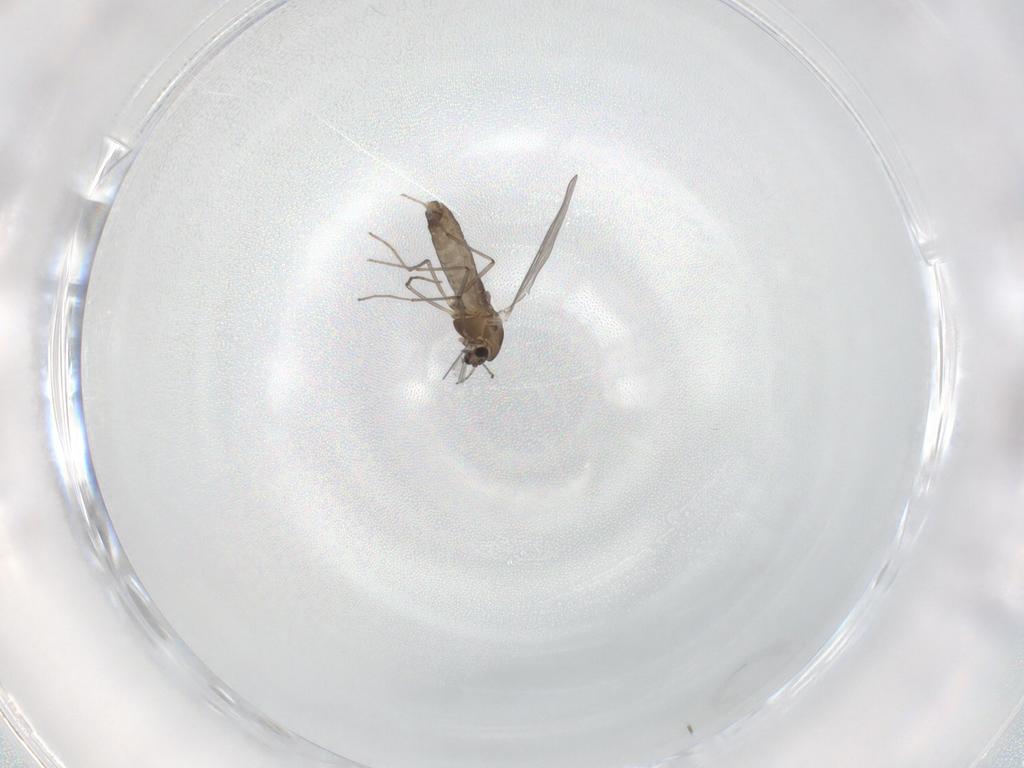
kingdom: Animalia
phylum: Arthropoda
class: Insecta
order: Diptera
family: Chironomidae
